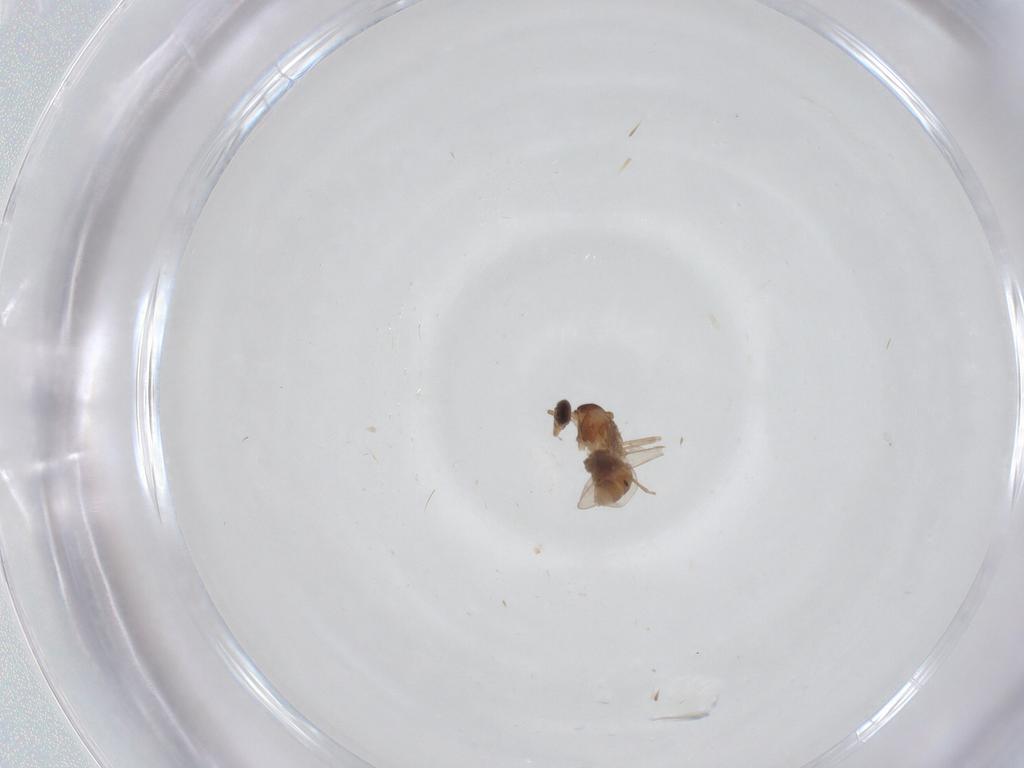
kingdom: Animalia
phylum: Arthropoda
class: Insecta
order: Diptera
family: Cecidomyiidae
